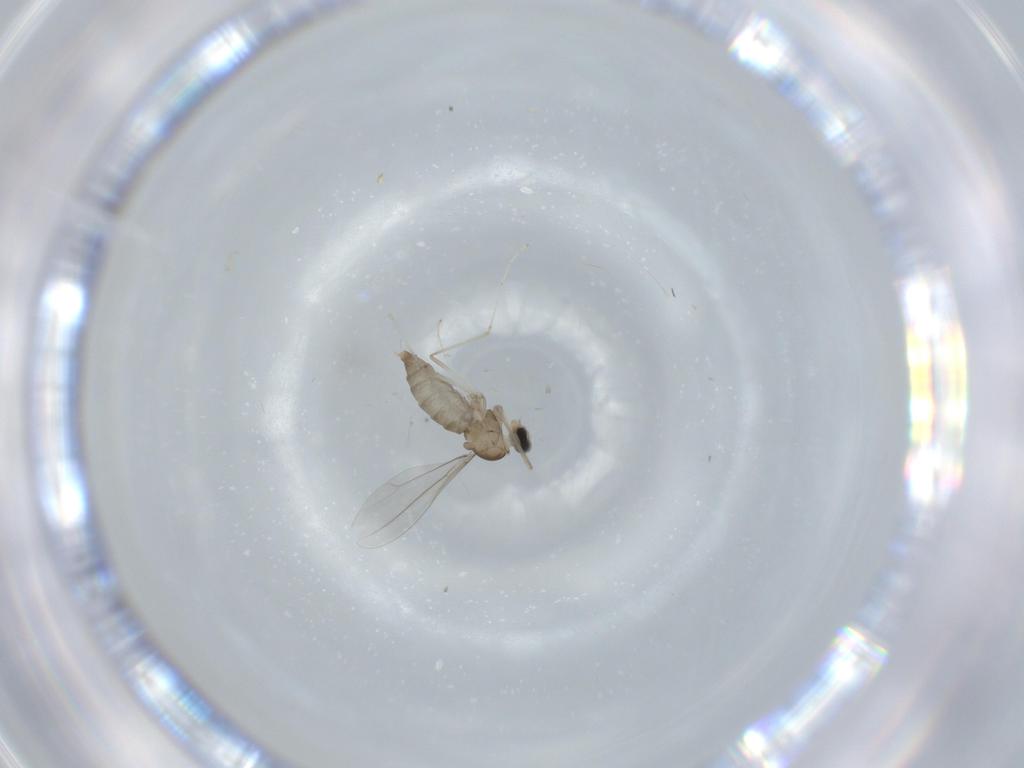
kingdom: Animalia
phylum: Arthropoda
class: Insecta
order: Diptera
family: Cecidomyiidae
